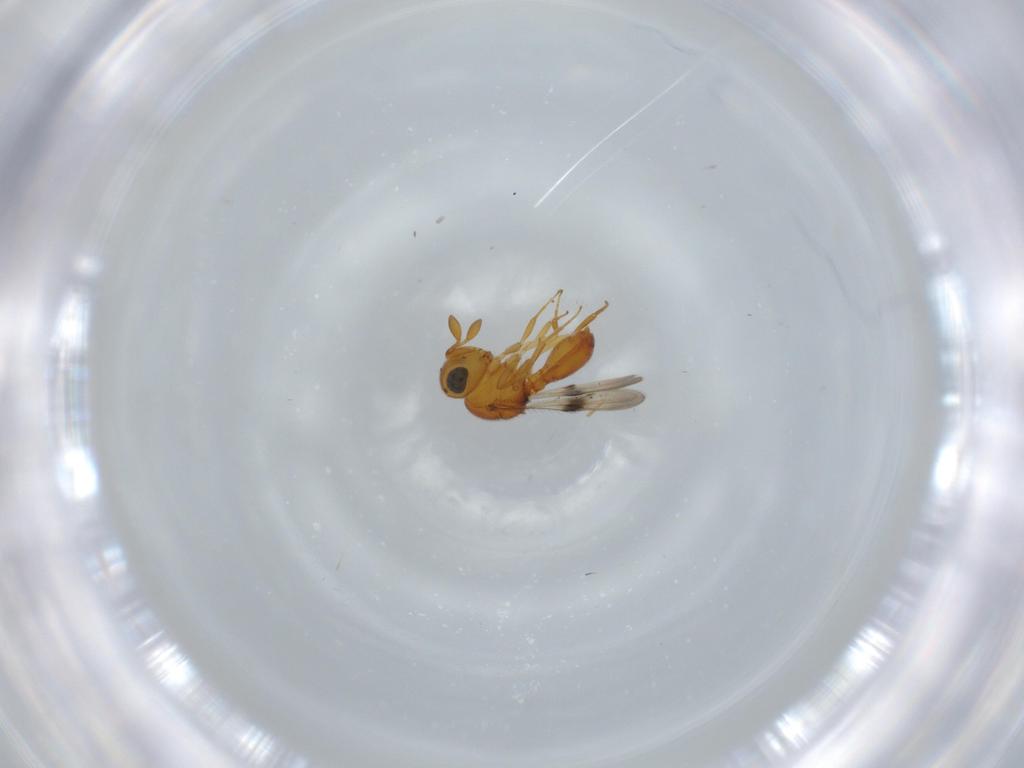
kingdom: Animalia
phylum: Arthropoda
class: Insecta
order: Hymenoptera
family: Scelionidae
